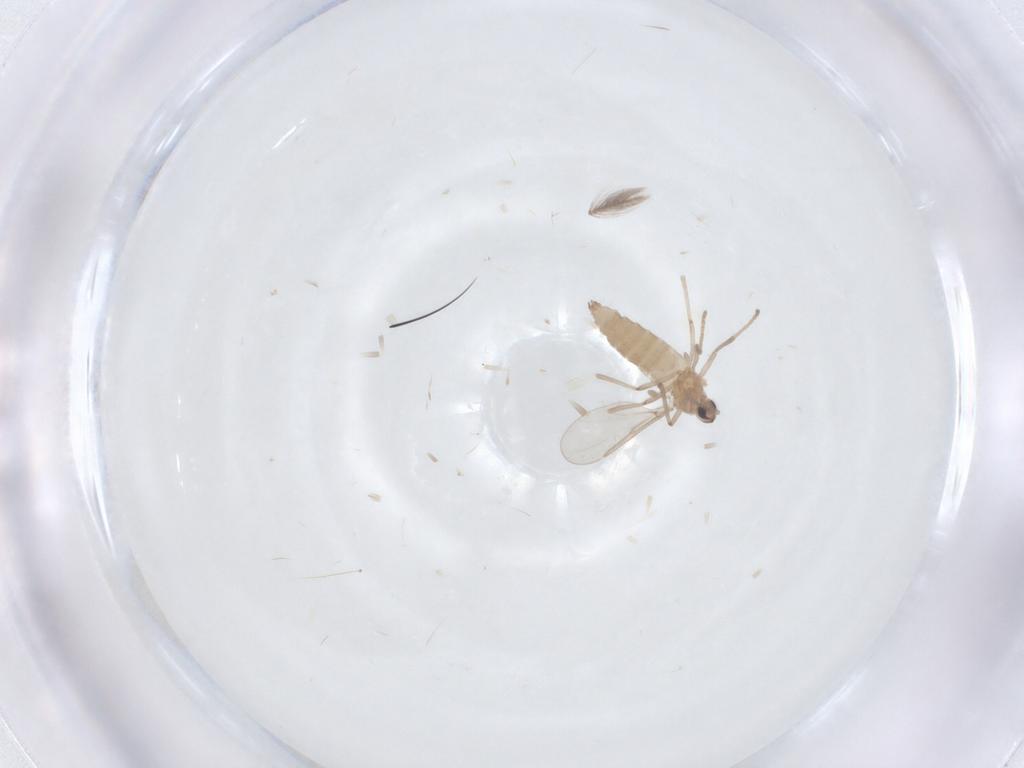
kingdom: Animalia
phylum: Arthropoda
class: Insecta
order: Diptera
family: Cecidomyiidae
